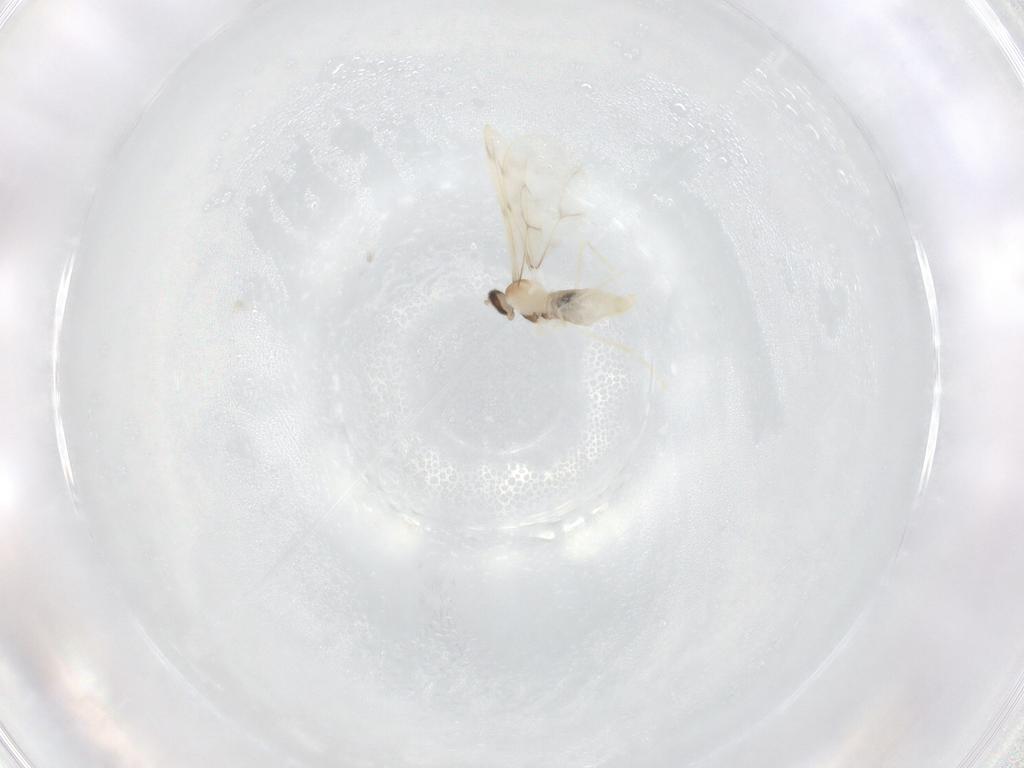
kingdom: Animalia
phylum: Arthropoda
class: Insecta
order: Diptera
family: Cecidomyiidae
